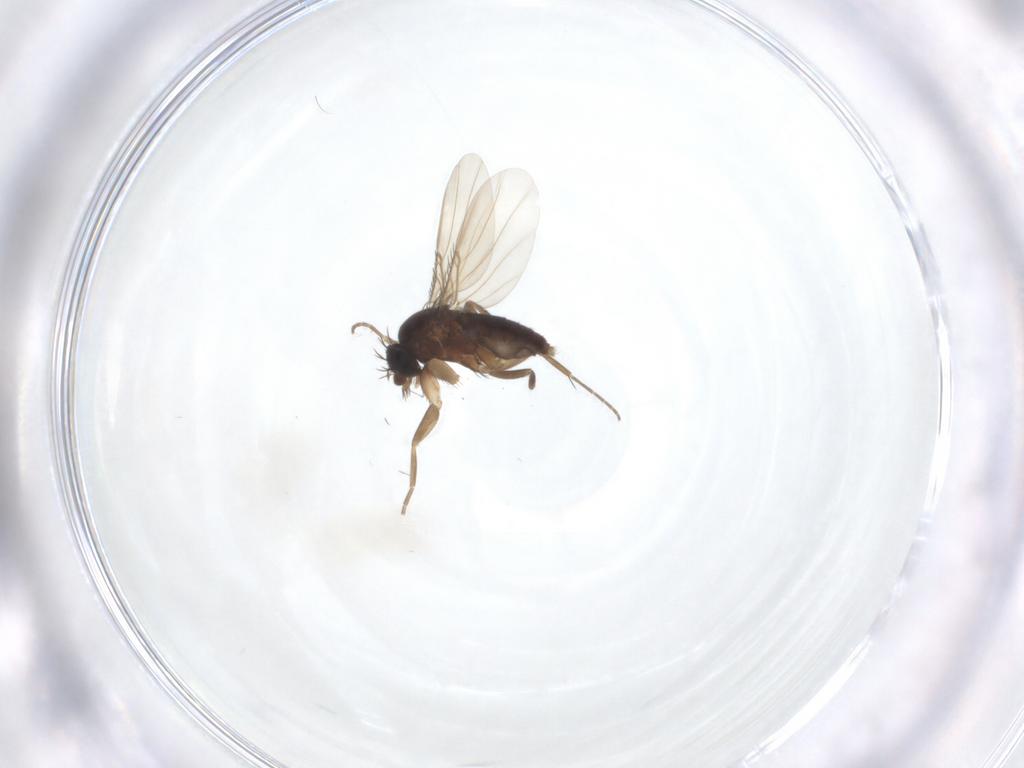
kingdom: Animalia
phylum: Arthropoda
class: Insecta
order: Diptera
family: Phoridae
